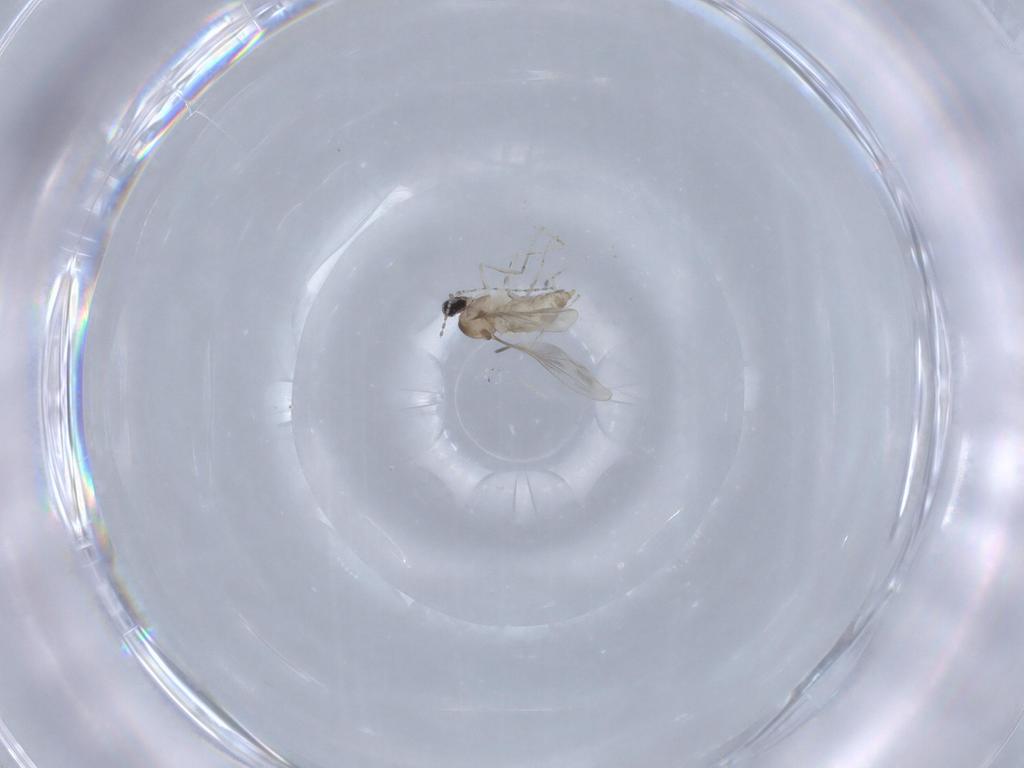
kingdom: Animalia
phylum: Arthropoda
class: Insecta
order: Diptera
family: Cecidomyiidae
